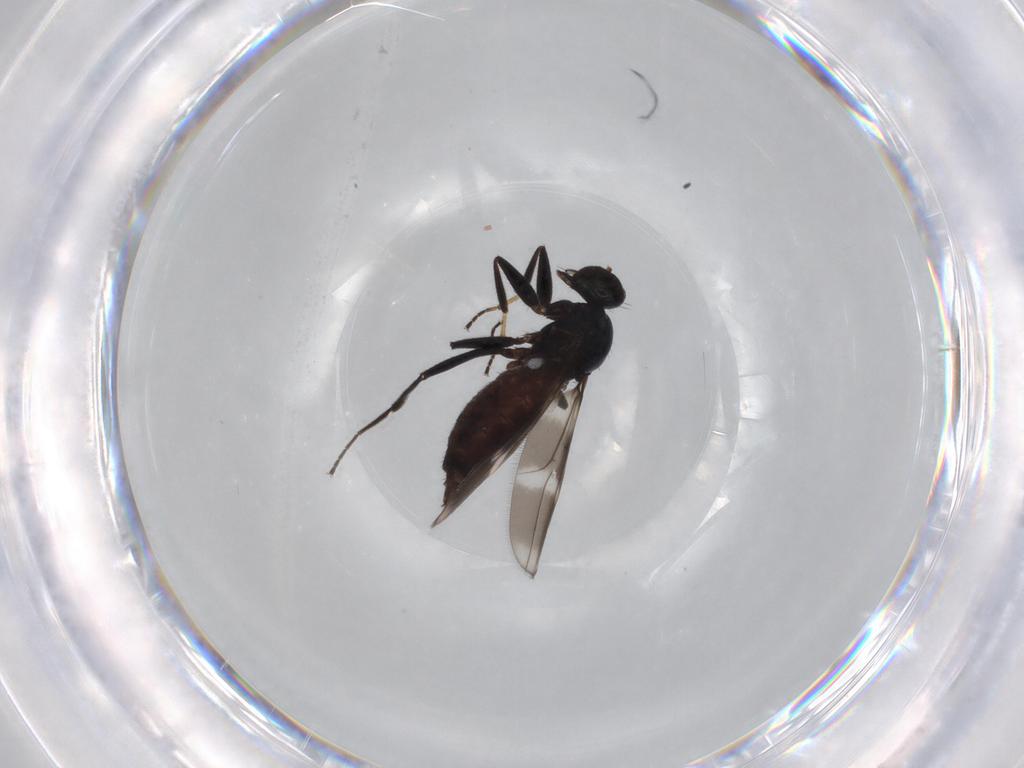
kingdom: Animalia
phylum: Arthropoda
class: Insecta
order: Diptera
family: Hybotidae
